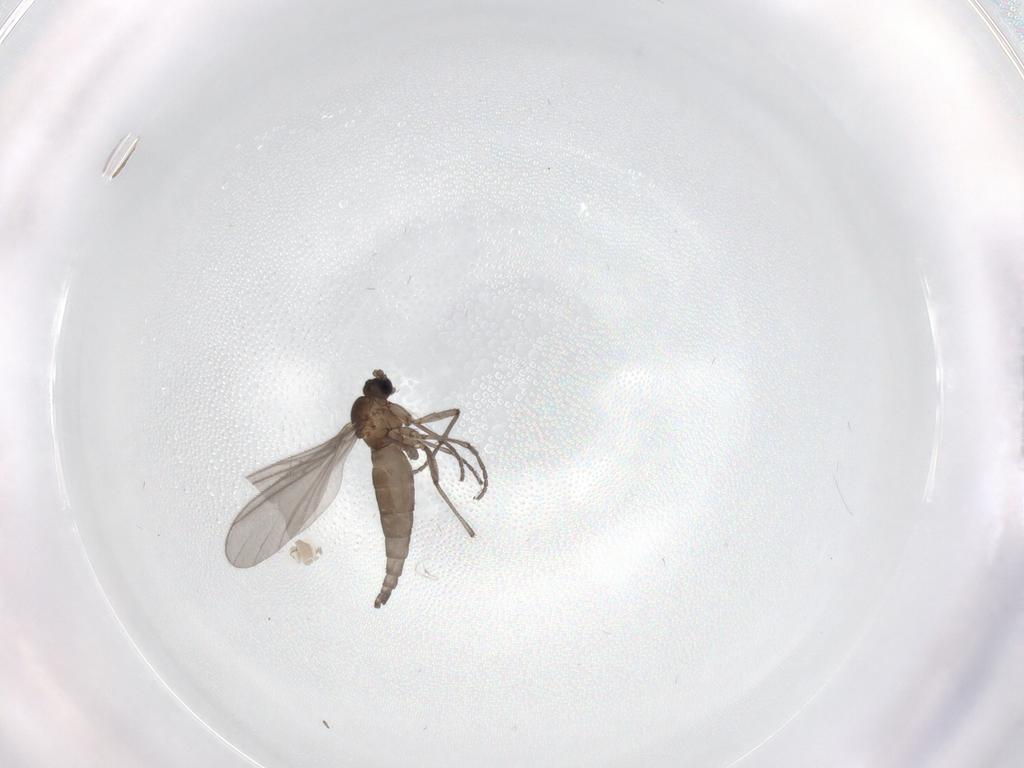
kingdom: Animalia
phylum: Arthropoda
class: Insecta
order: Diptera
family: Sciaridae
